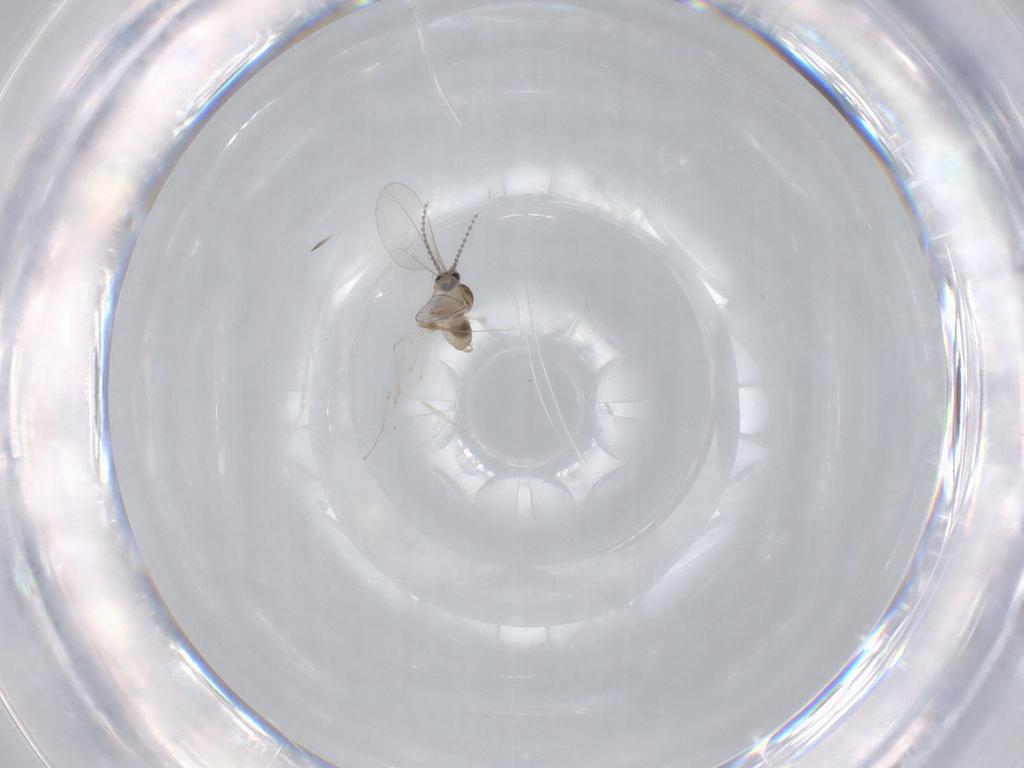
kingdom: Animalia
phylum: Arthropoda
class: Insecta
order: Diptera
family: Cecidomyiidae
